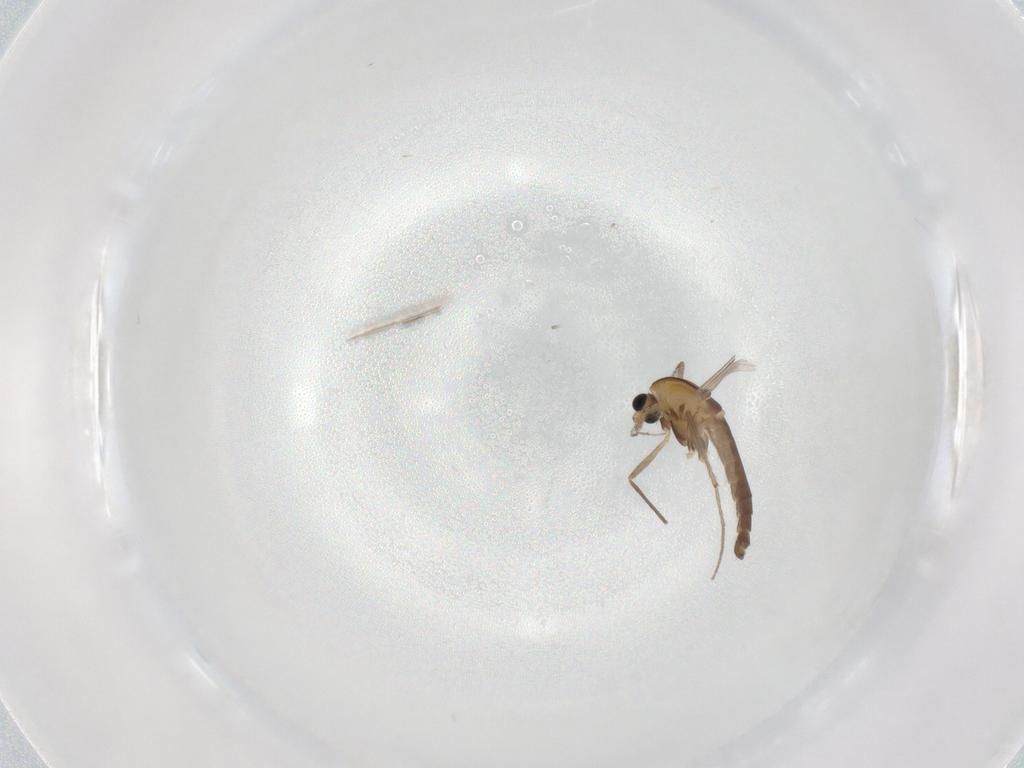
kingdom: Animalia
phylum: Arthropoda
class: Insecta
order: Diptera
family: Chironomidae
